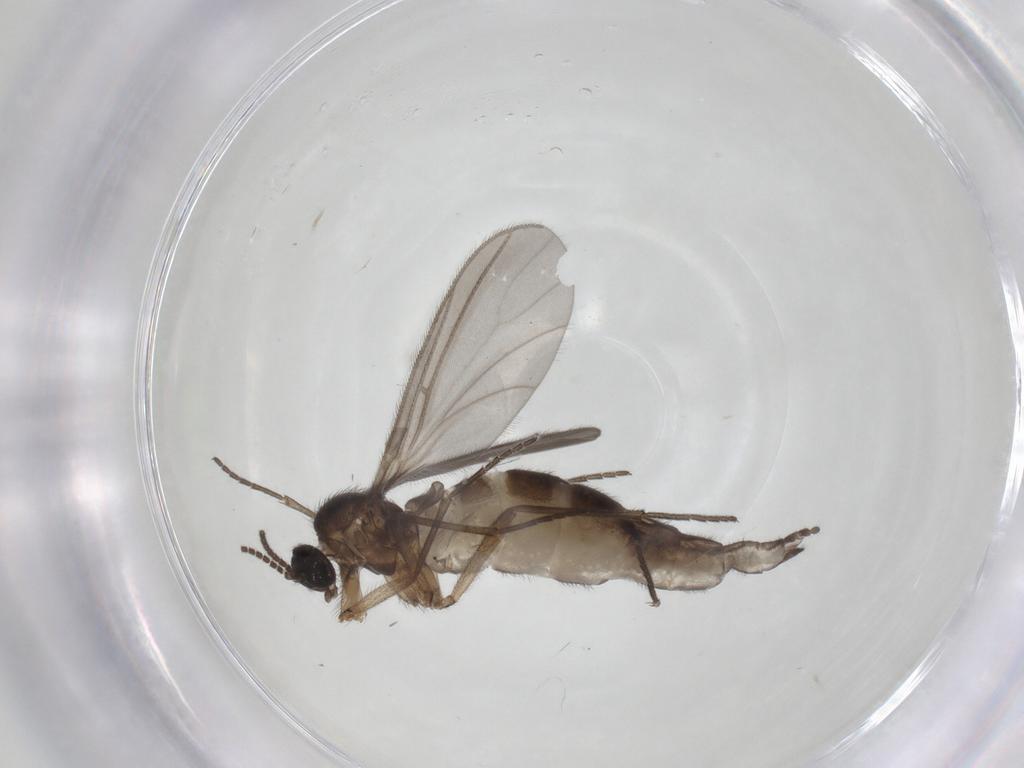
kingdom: Animalia
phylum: Arthropoda
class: Insecta
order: Diptera
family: Sciaridae
